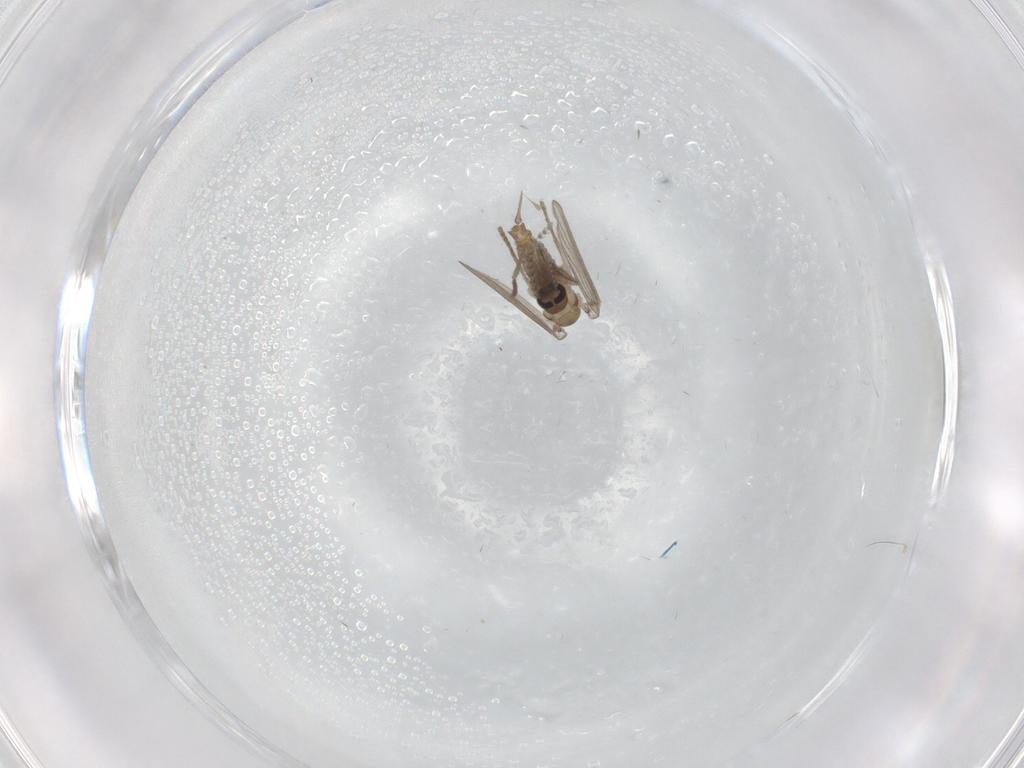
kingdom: Animalia
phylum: Arthropoda
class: Insecta
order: Diptera
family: Psychodidae
